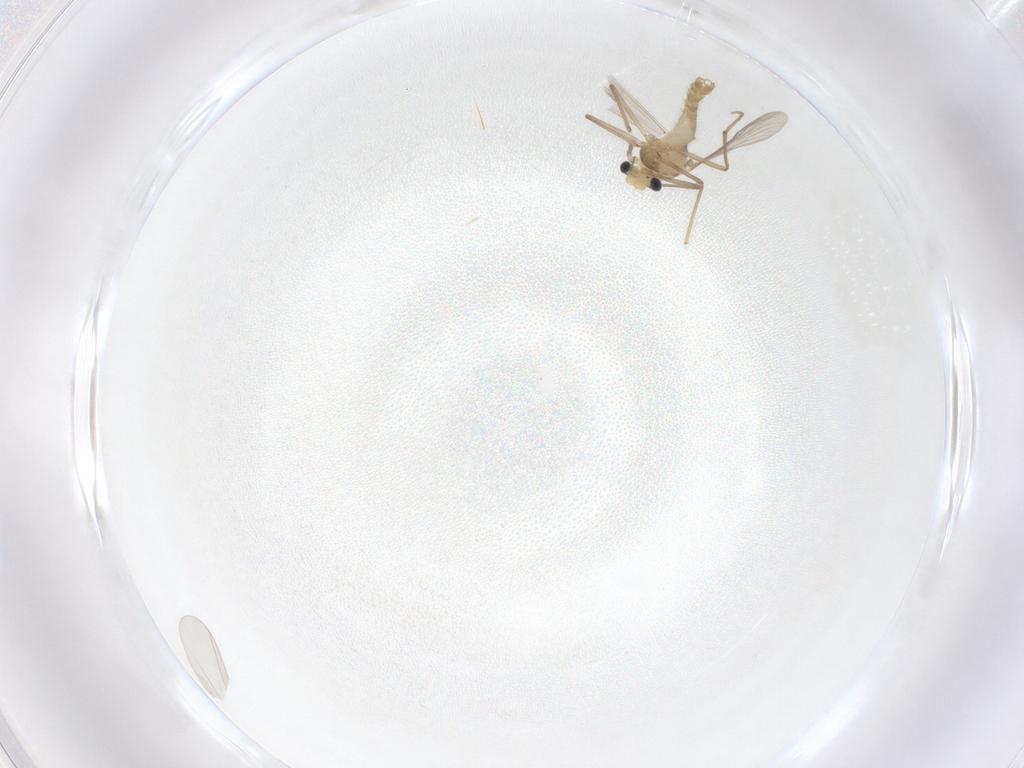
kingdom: Animalia
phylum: Arthropoda
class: Insecta
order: Diptera
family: Chironomidae
